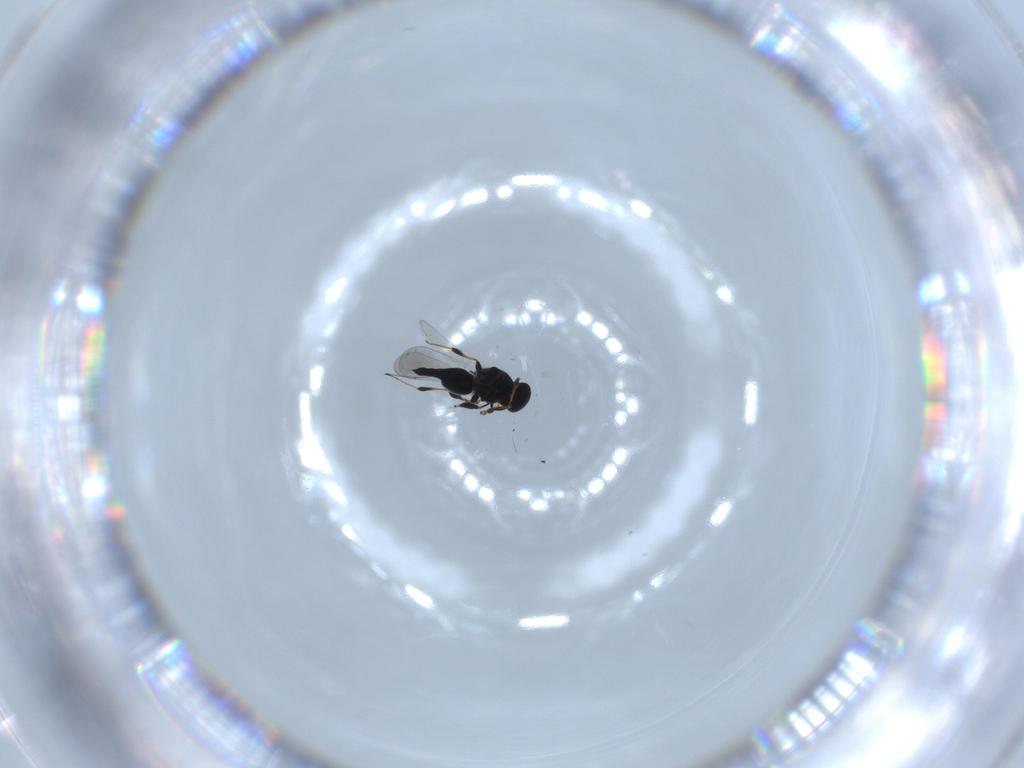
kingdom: Animalia
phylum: Arthropoda
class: Insecta
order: Hymenoptera
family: Platygastridae
